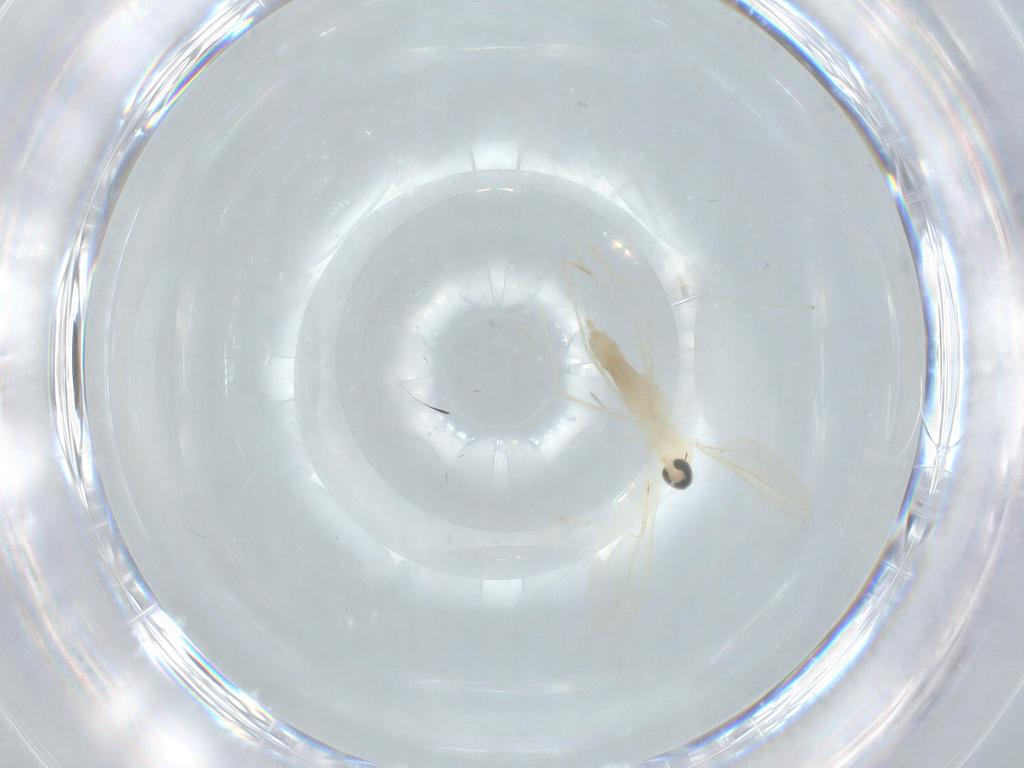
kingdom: Animalia
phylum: Arthropoda
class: Insecta
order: Diptera
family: Cecidomyiidae
